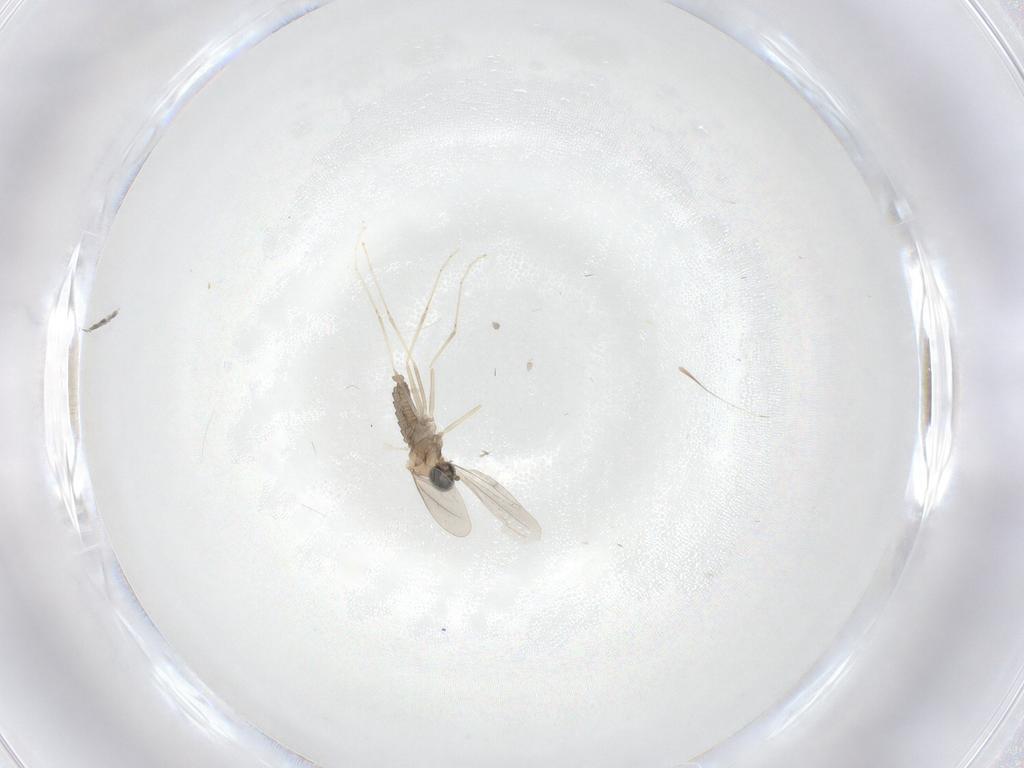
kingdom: Animalia
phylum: Arthropoda
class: Insecta
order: Diptera
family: Cecidomyiidae
